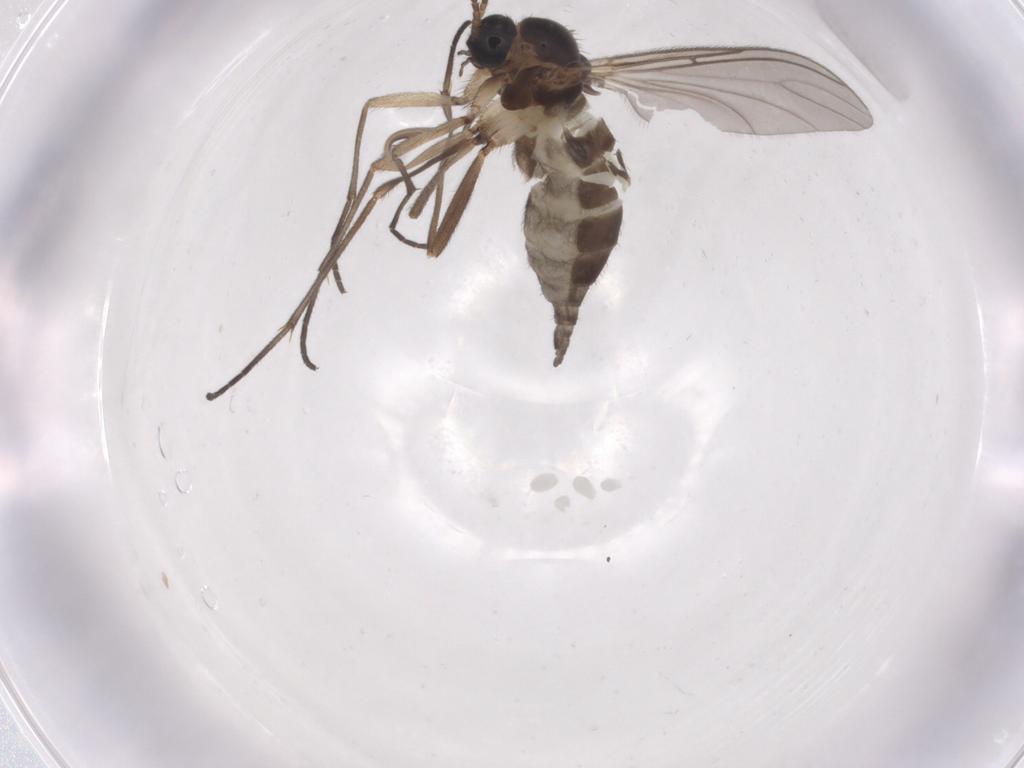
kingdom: Animalia
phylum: Arthropoda
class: Insecta
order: Diptera
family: Sciaridae
